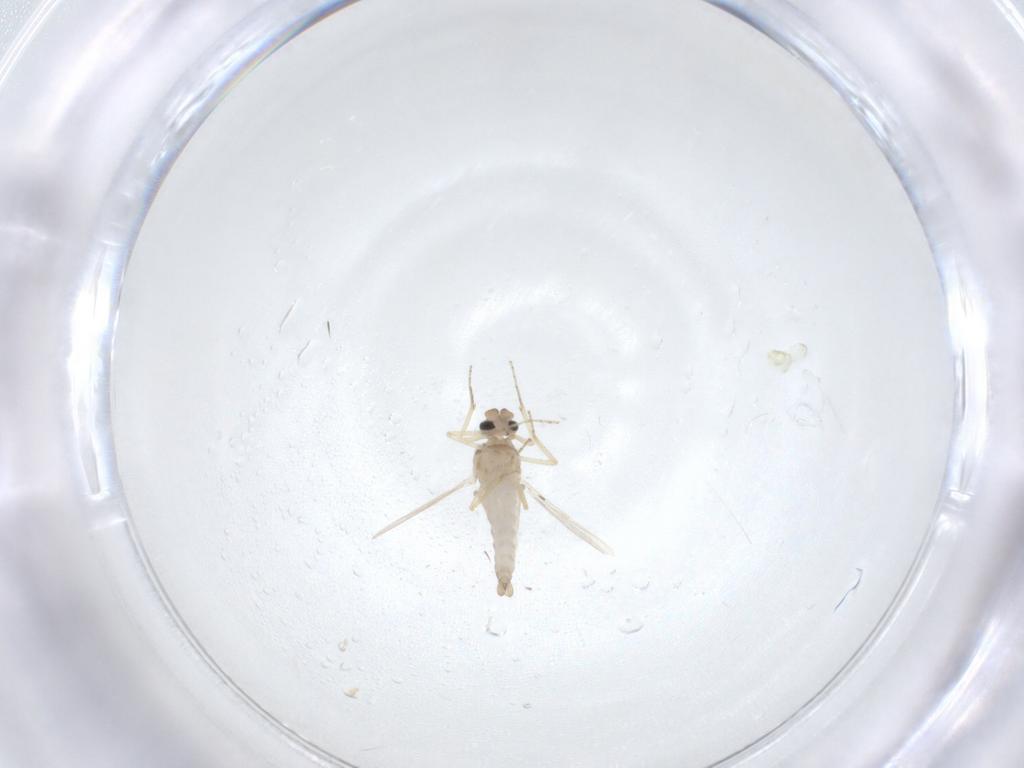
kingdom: Animalia
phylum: Arthropoda
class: Insecta
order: Diptera
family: Ceratopogonidae
